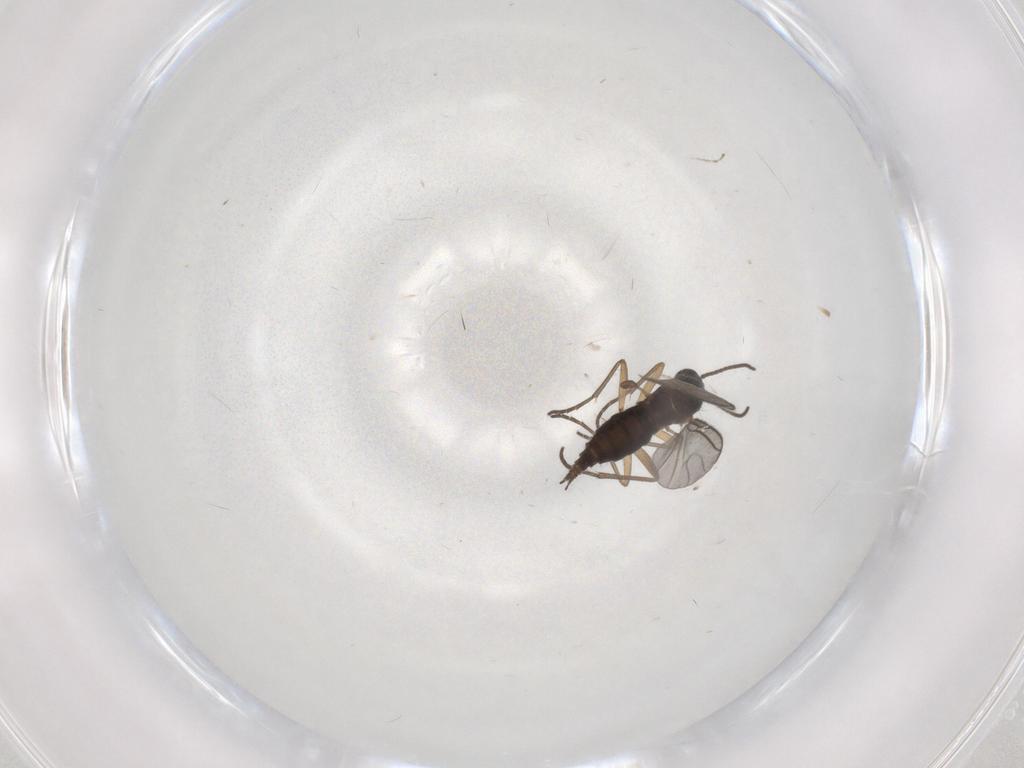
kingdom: Animalia
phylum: Arthropoda
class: Insecta
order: Diptera
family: Sciaridae
